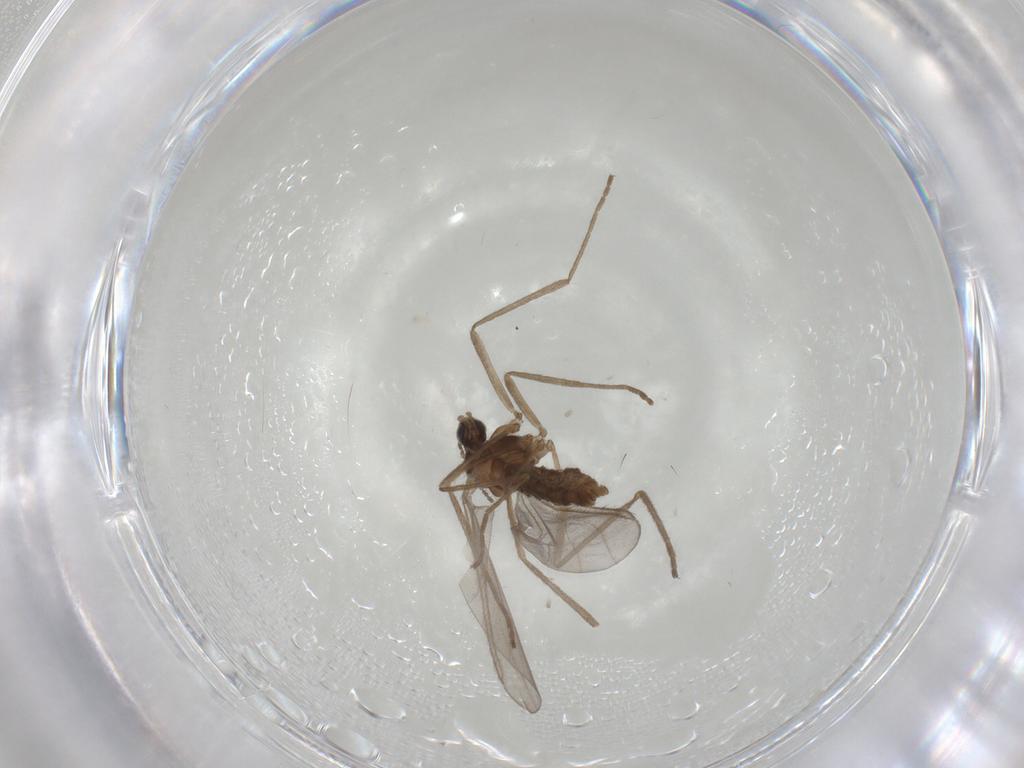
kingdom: Animalia
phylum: Arthropoda
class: Insecta
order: Diptera
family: Cecidomyiidae
